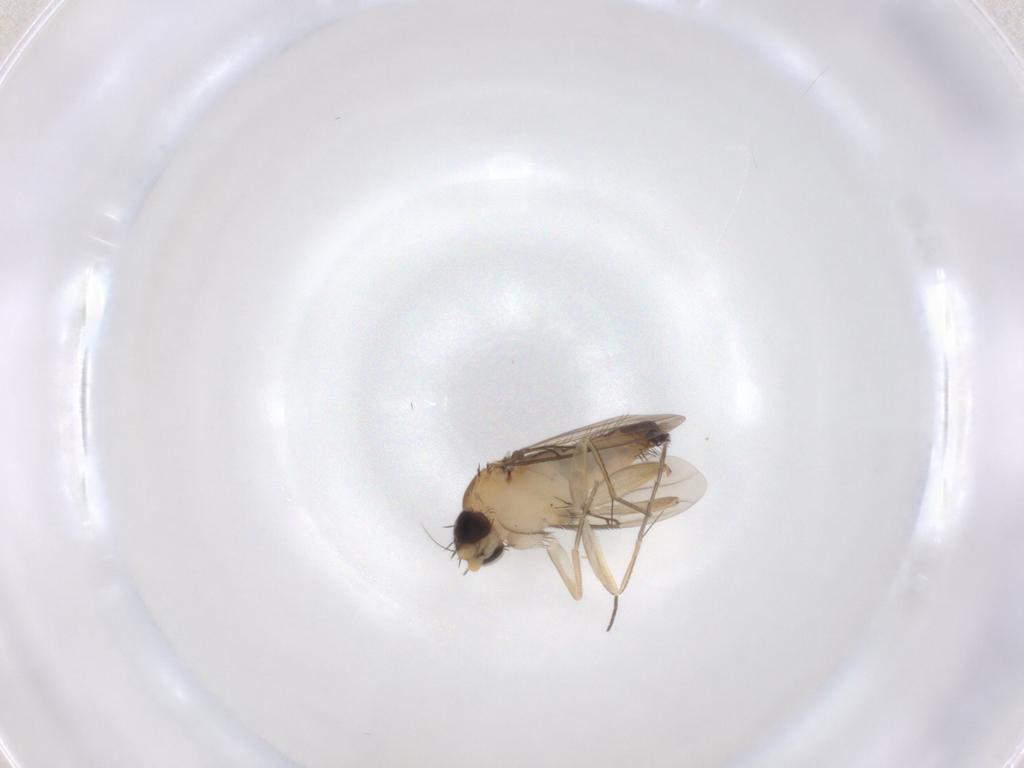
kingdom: Animalia
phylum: Arthropoda
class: Insecta
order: Diptera
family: Phoridae
